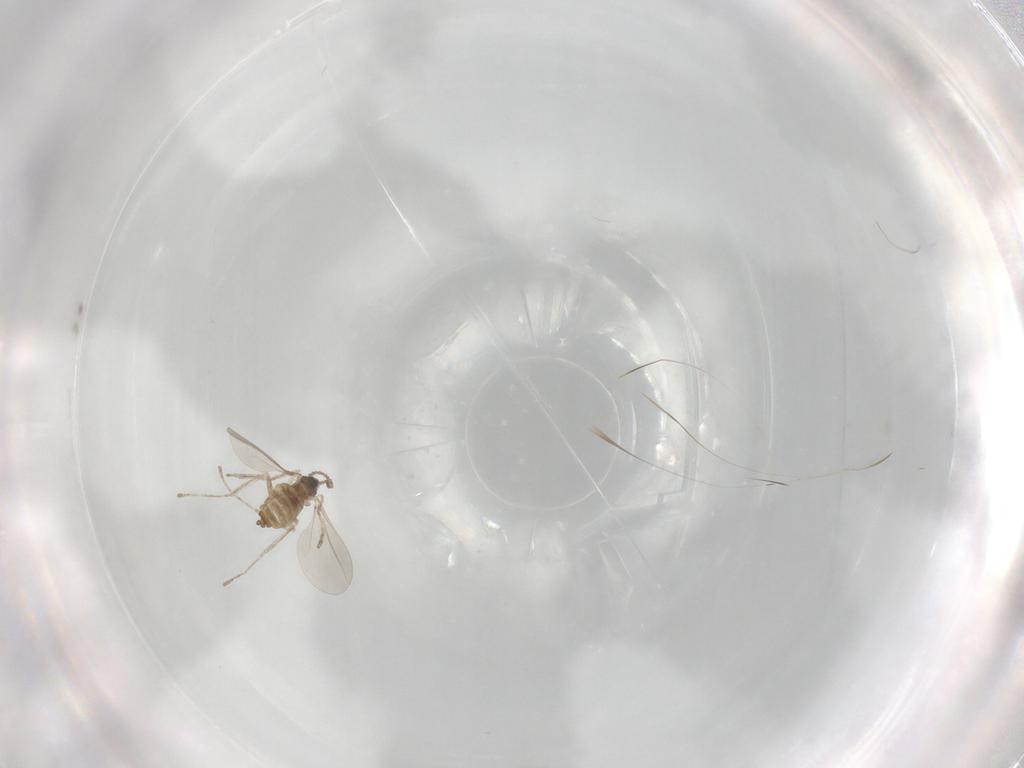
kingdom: Animalia
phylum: Arthropoda
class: Insecta
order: Diptera
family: Cecidomyiidae
